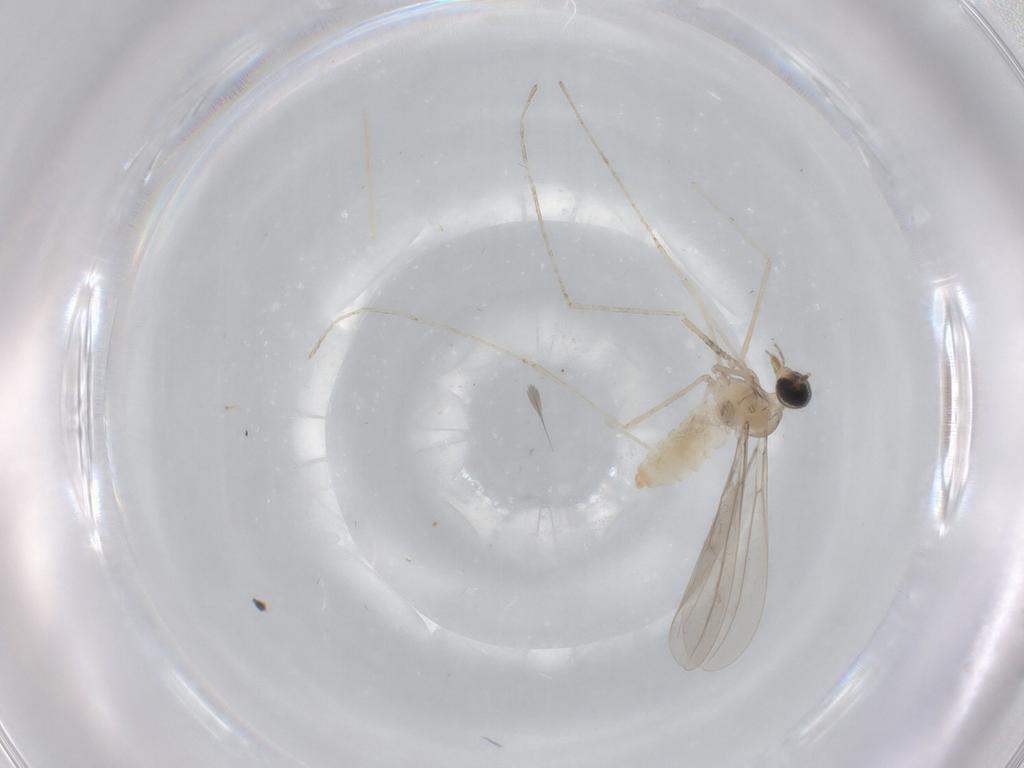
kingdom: Animalia
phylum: Arthropoda
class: Insecta
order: Diptera
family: Cecidomyiidae
